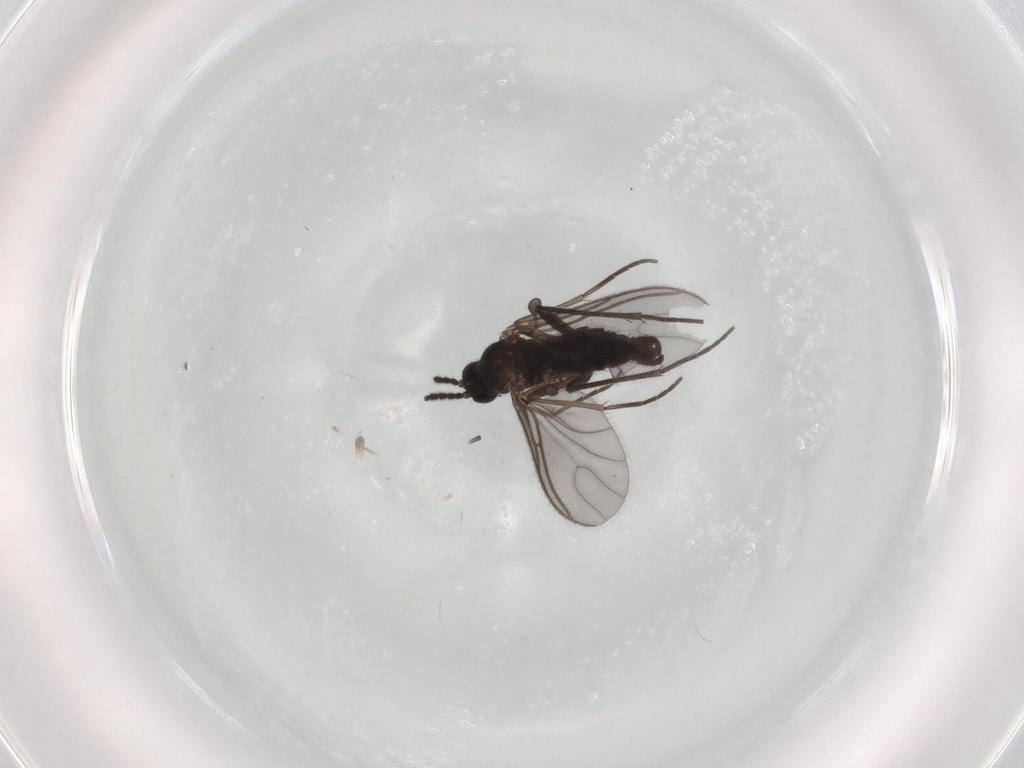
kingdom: Animalia
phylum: Arthropoda
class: Insecta
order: Diptera
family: Sciaridae
